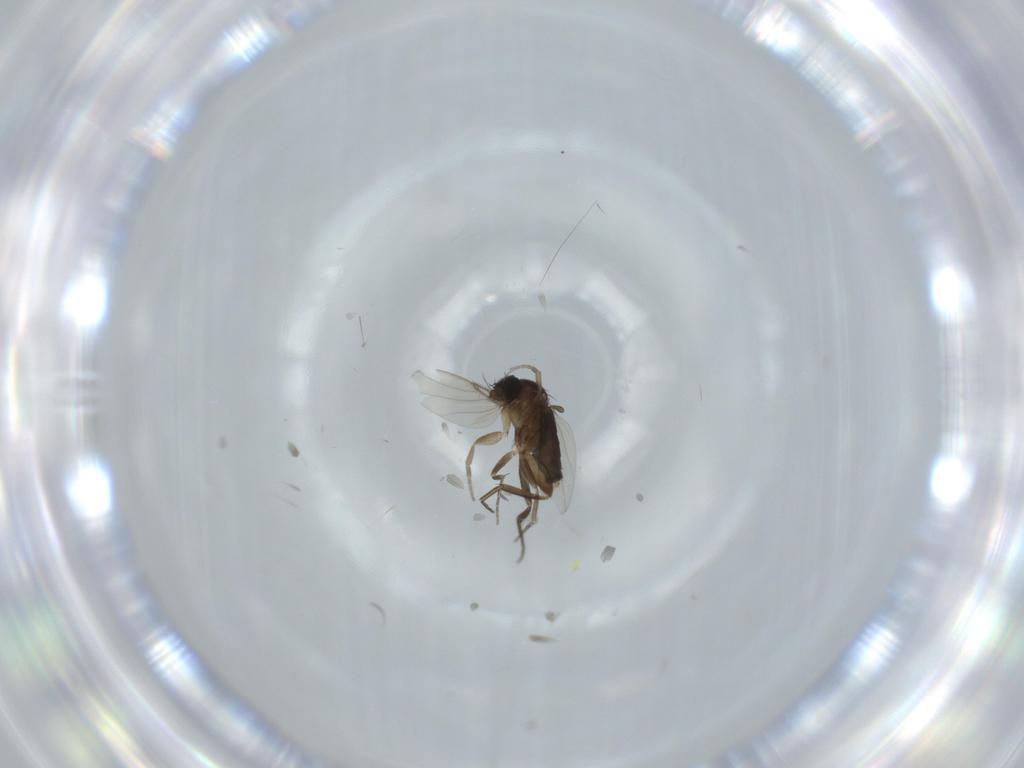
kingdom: Animalia
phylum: Arthropoda
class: Insecta
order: Diptera
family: Phoridae
